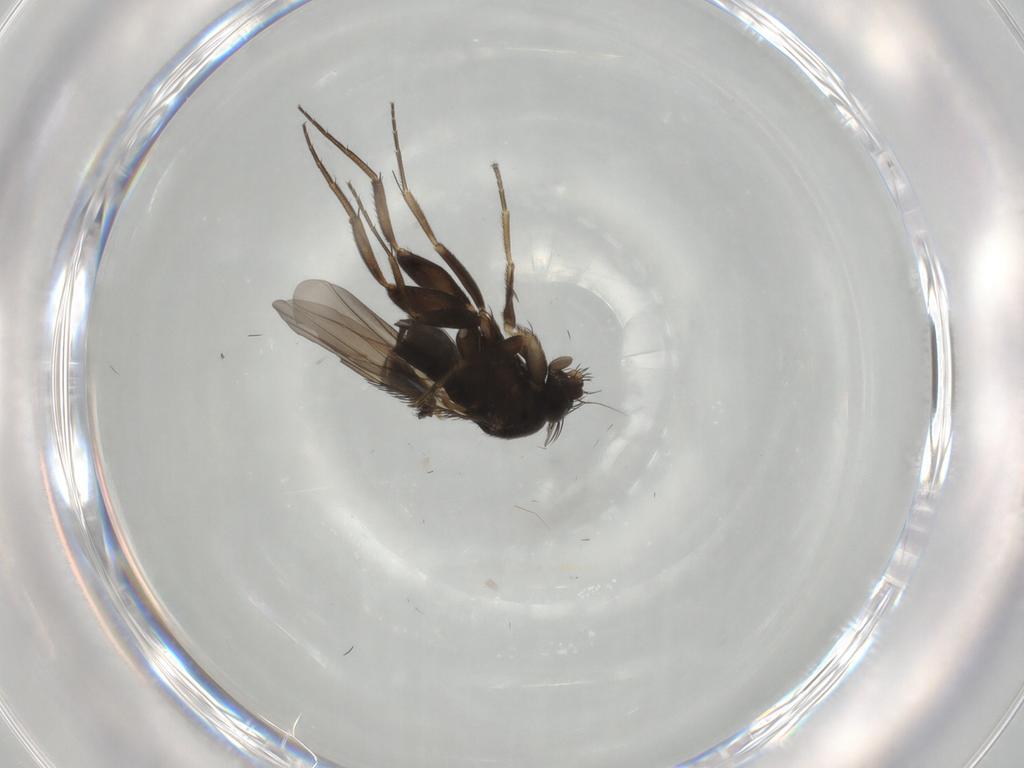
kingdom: Animalia
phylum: Arthropoda
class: Insecta
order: Diptera
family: Phoridae
